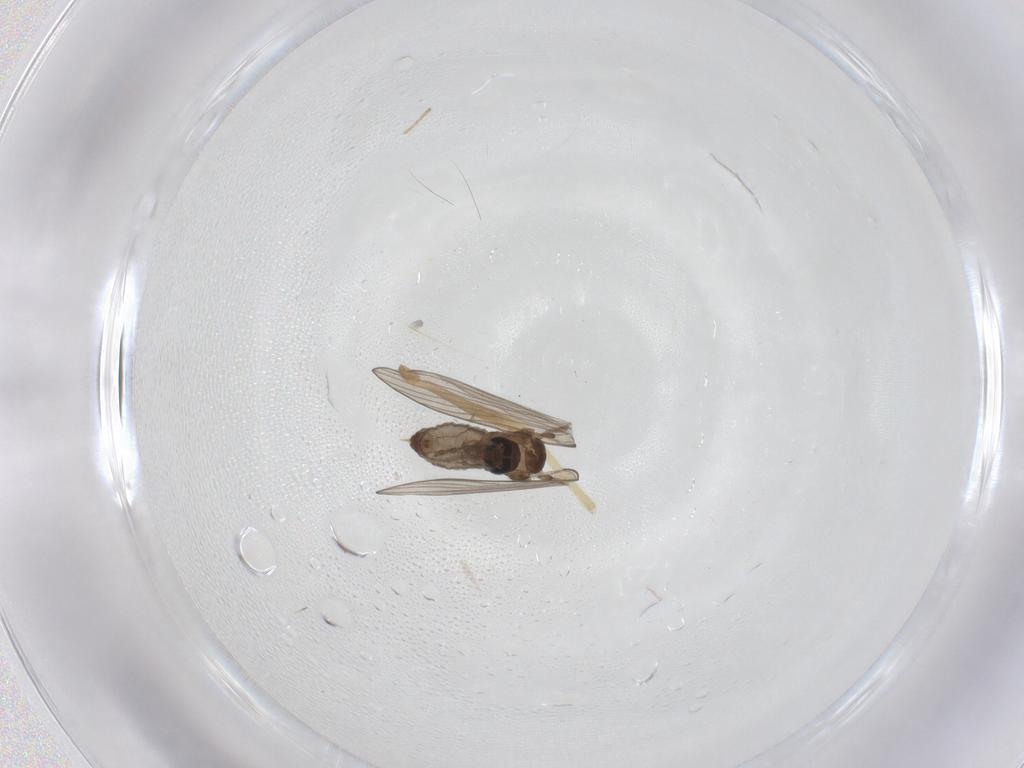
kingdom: Animalia
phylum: Arthropoda
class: Insecta
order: Diptera
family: Psychodidae
